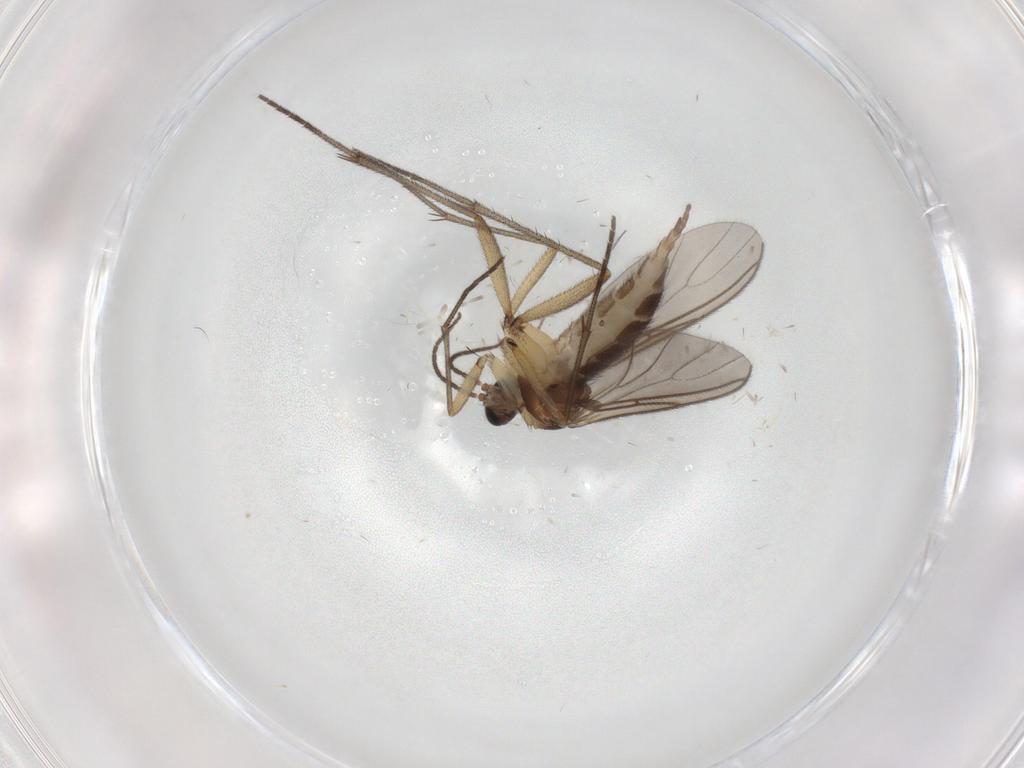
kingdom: Animalia
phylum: Arthropoda
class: Insecta
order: Diptera
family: Dolichopodidae
